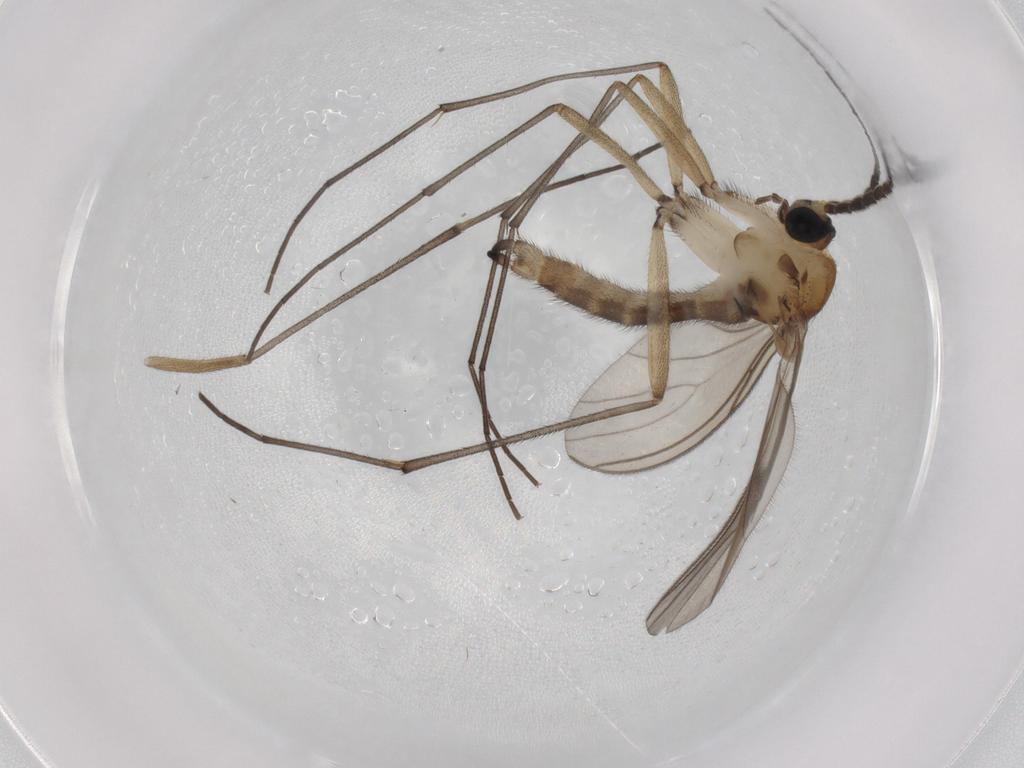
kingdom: Animalia
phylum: Arthropoda
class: Insecta
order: Diptera
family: Sciaridae
